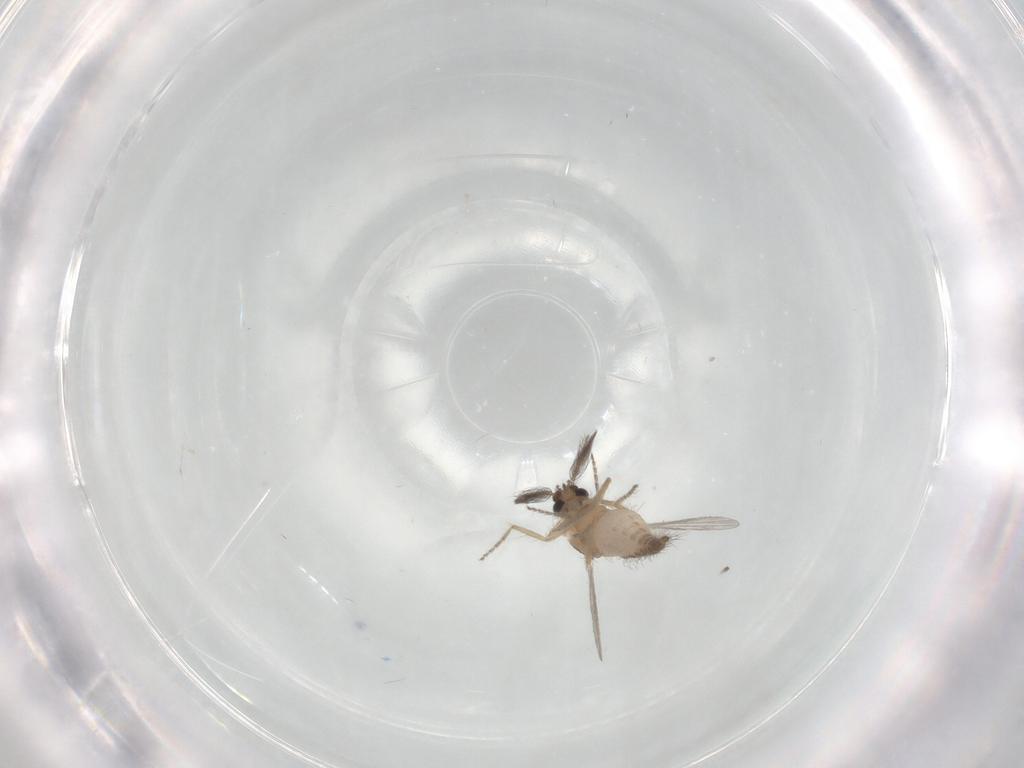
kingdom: Animalia
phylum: Arthropoda
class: Insecta
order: Diptera
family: Ceratopogonidae
